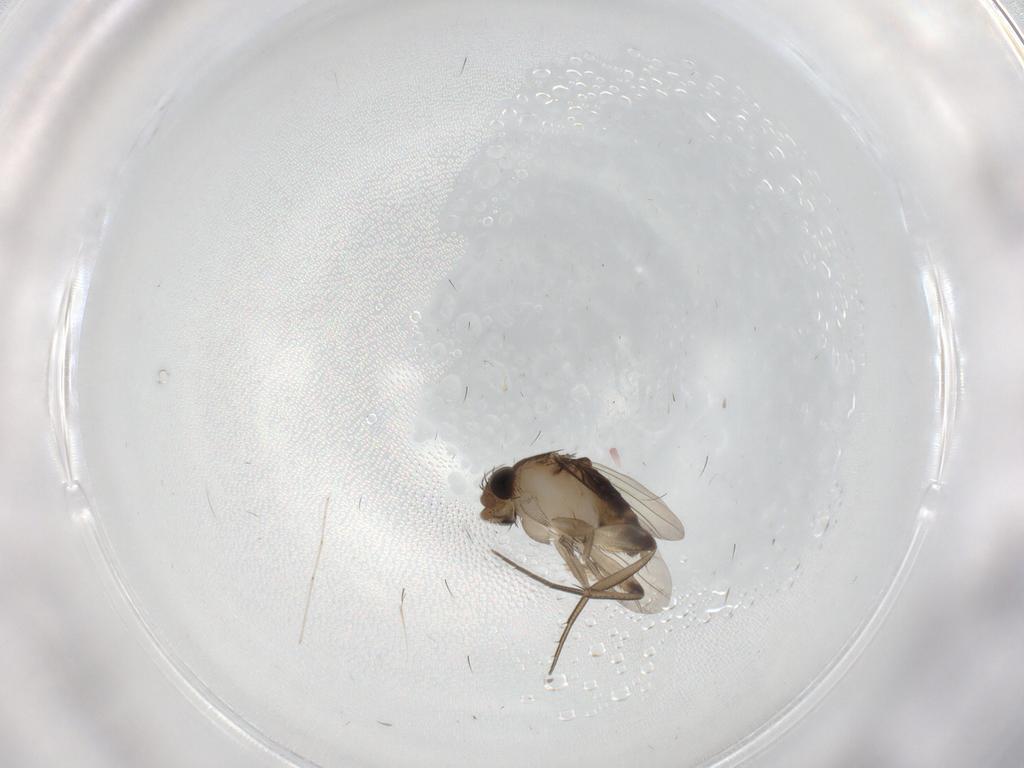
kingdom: Animalia
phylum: Arthropoda
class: Insecta
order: Diptera
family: Phoridae
